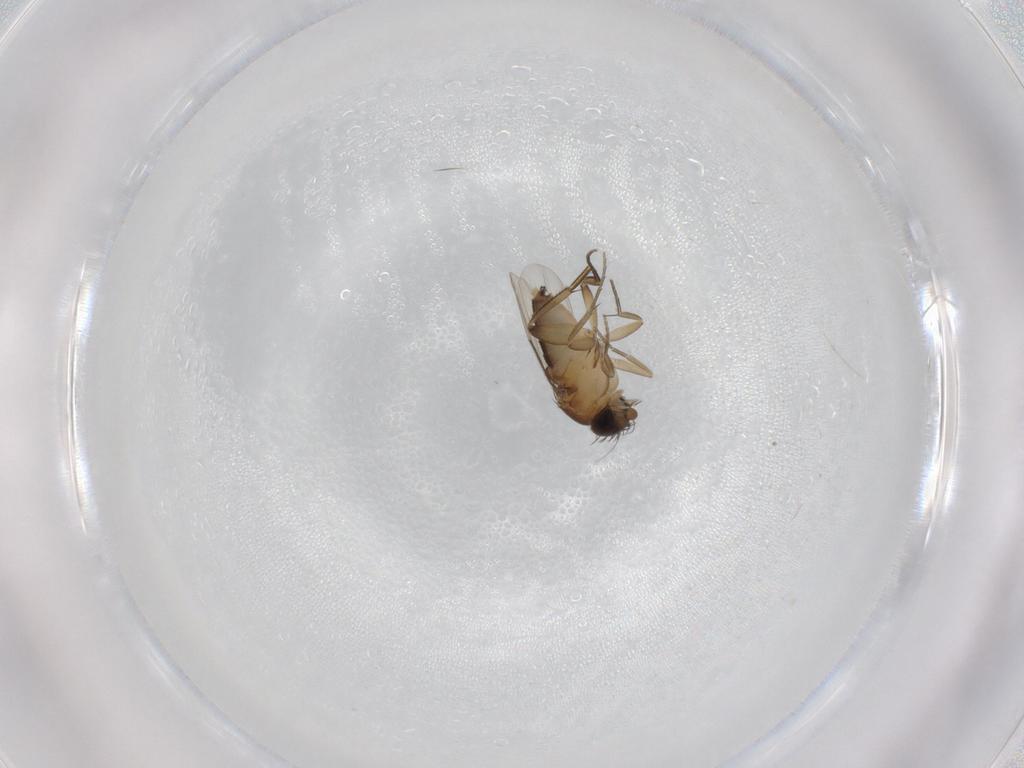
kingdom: Animalia
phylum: Arthropoda
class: Insecta
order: Diptera
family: Phoridae
